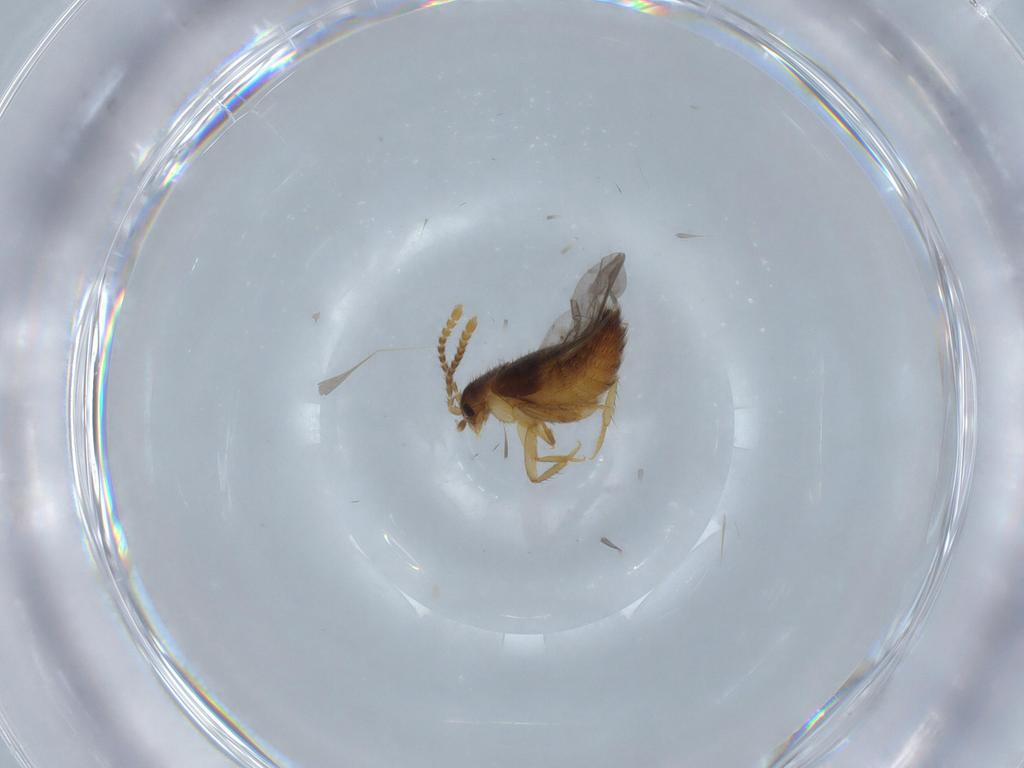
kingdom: Animalia
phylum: Arthropoda
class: Insecta
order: Coleoptera
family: Staphylinidae
